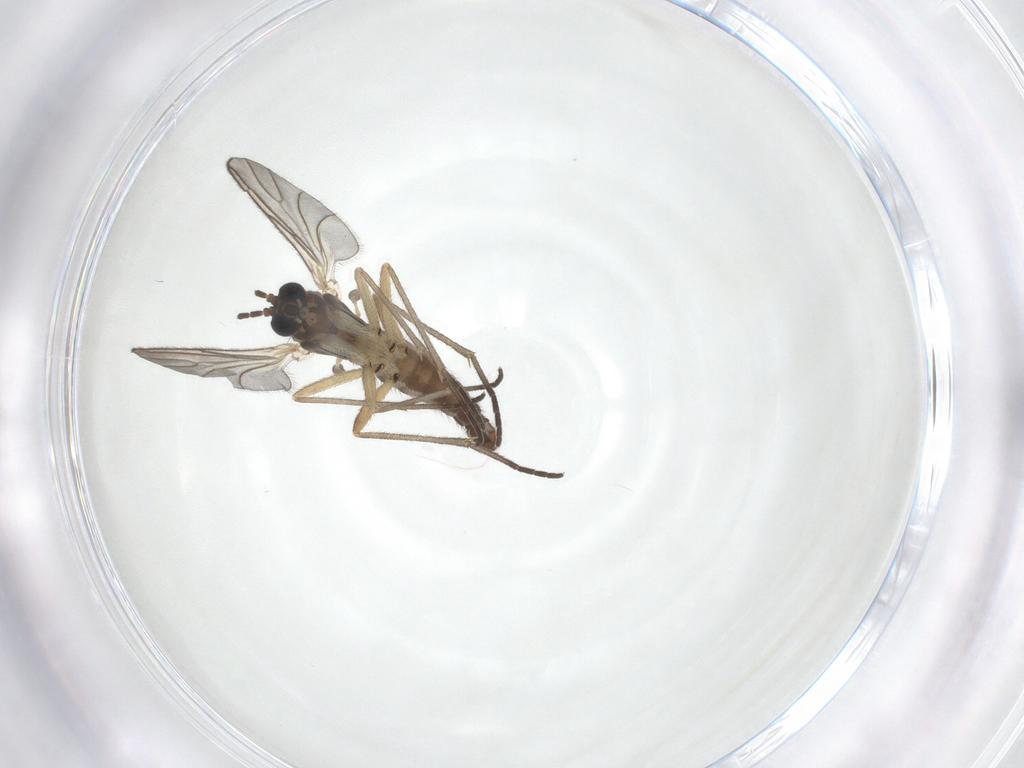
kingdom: Animalia
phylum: Arthropoda
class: Insecta
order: Diptera
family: Sciaridae
